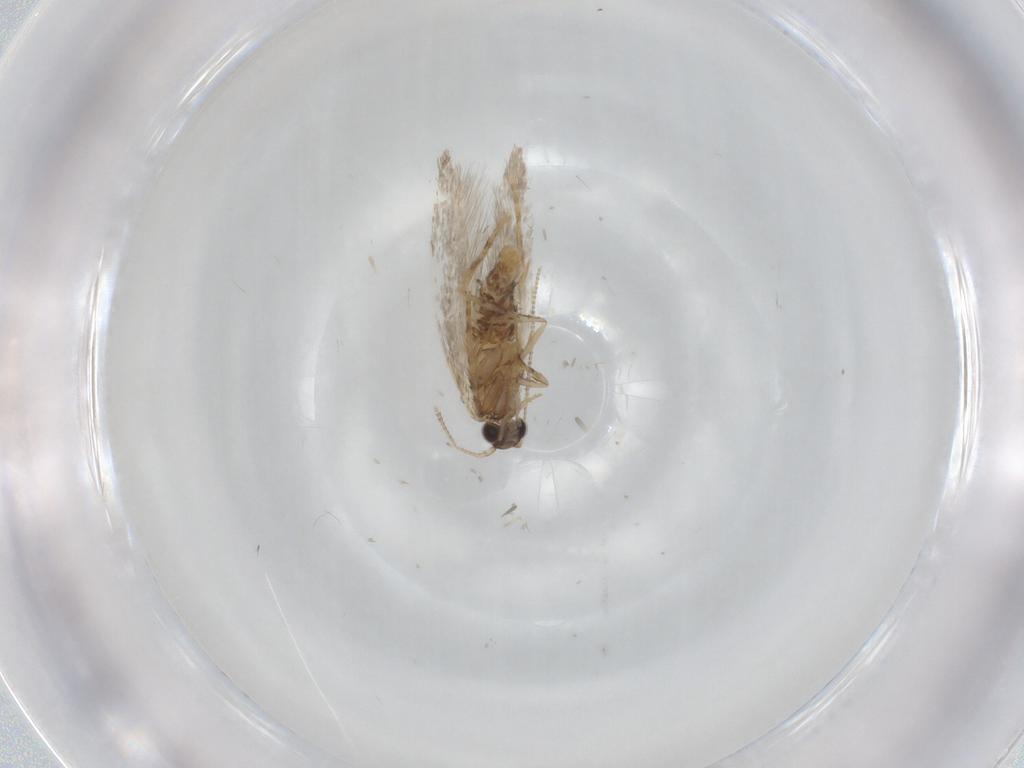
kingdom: Animalia
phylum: Arthropoda
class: Insecta
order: Lepidoptera
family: Tineidae
